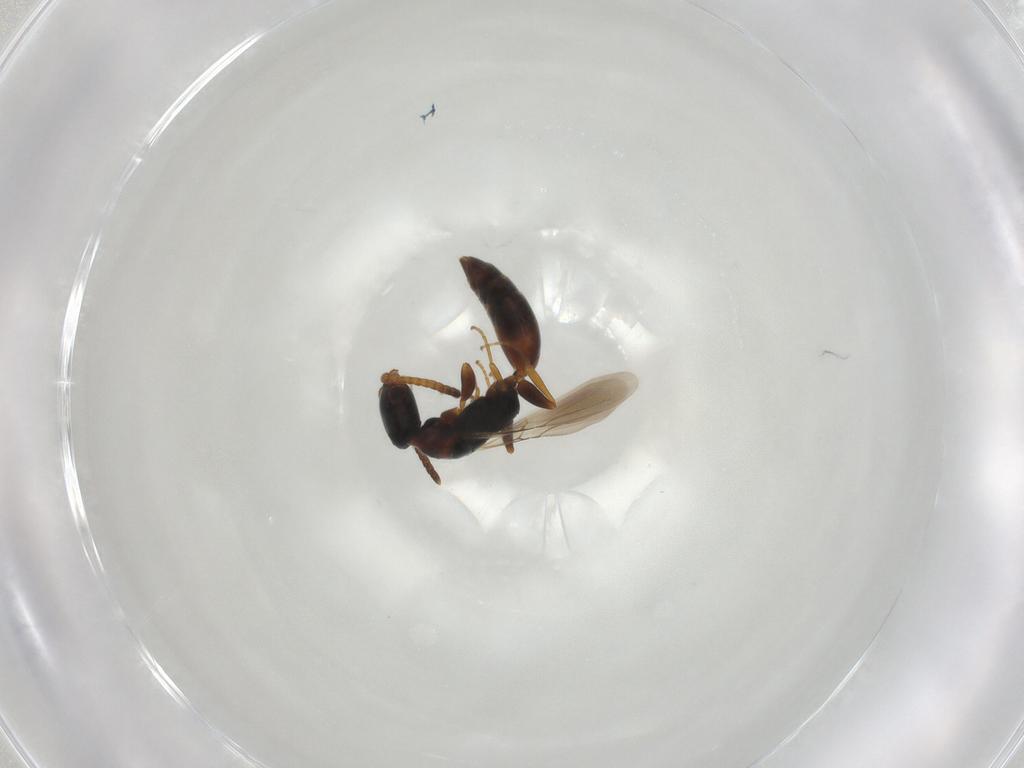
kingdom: Animalia
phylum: Arthropoda
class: Insecta
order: Hymenoptera
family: Bethylidae
